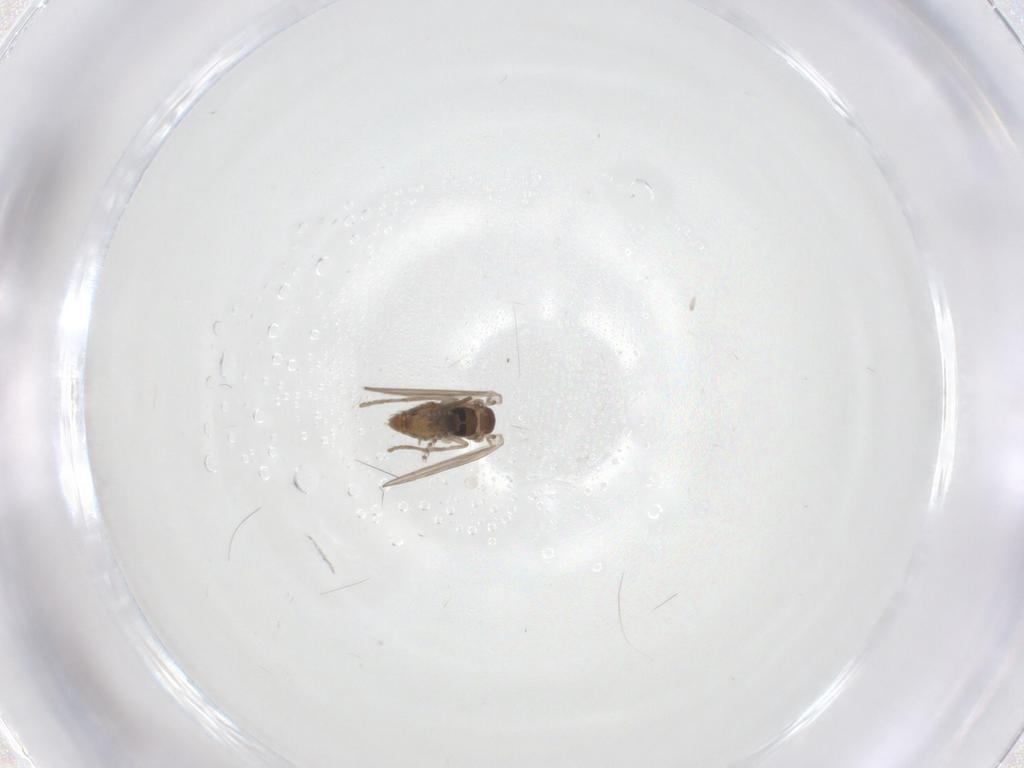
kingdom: Animalia
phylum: Arthropoda
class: Insecta
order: Diptera
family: Psychodidae
